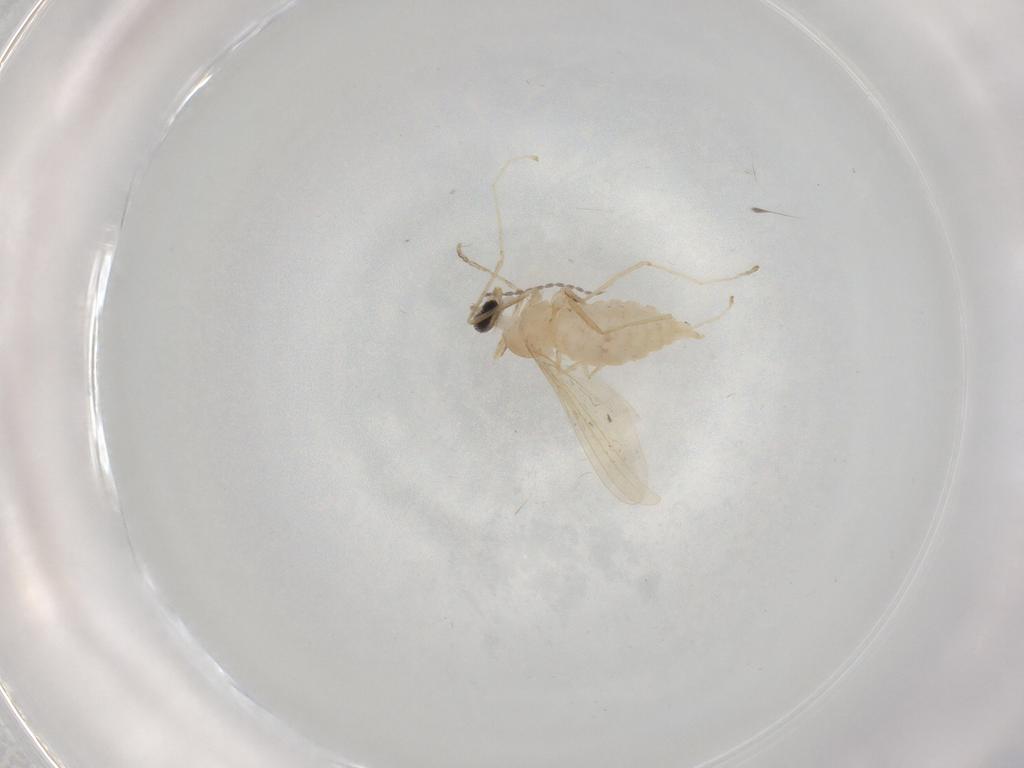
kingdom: Animalia
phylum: Arthropoda
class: Insecta
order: Diptera
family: Cecidomyiidae
